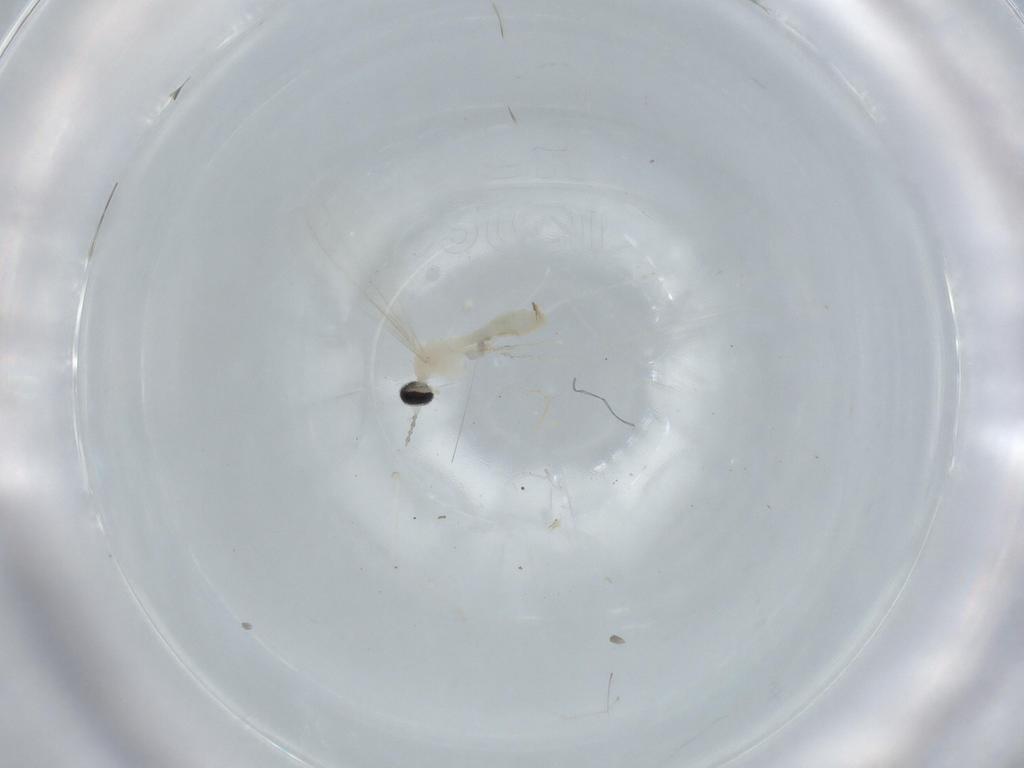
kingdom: Animalia
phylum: Arthropoda
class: Insecta
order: Diptera
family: Cecidomyiidae
